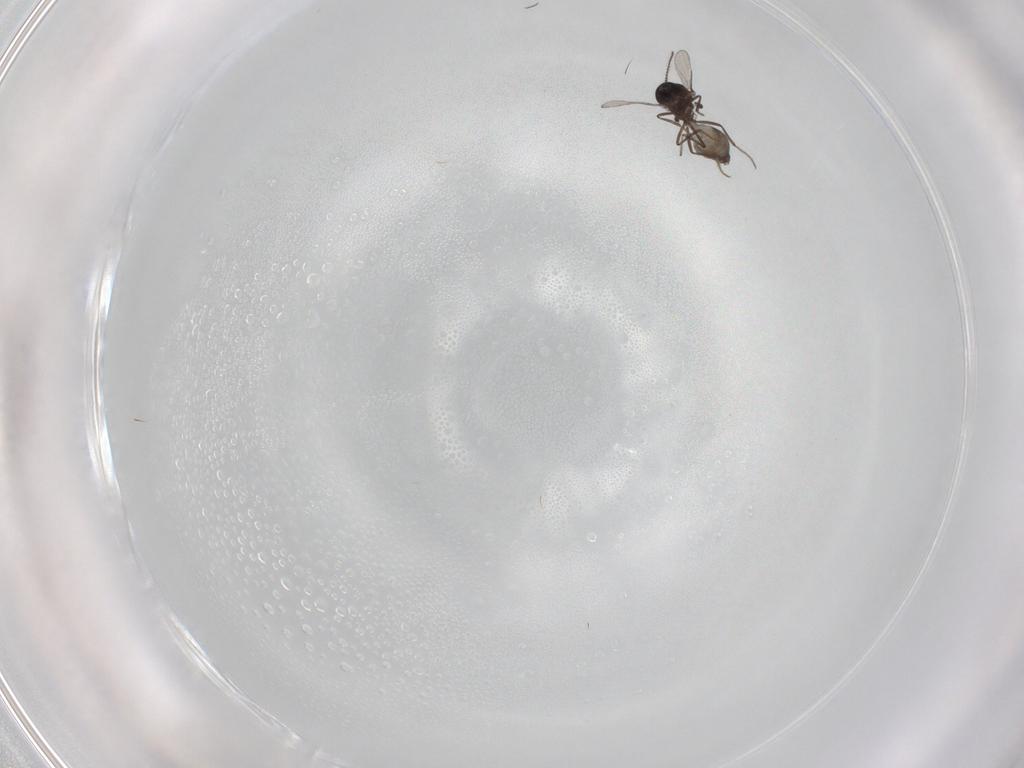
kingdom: Animalia
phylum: Arthropoda
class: Insecta
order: Diptera
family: Ceratopogonidae
